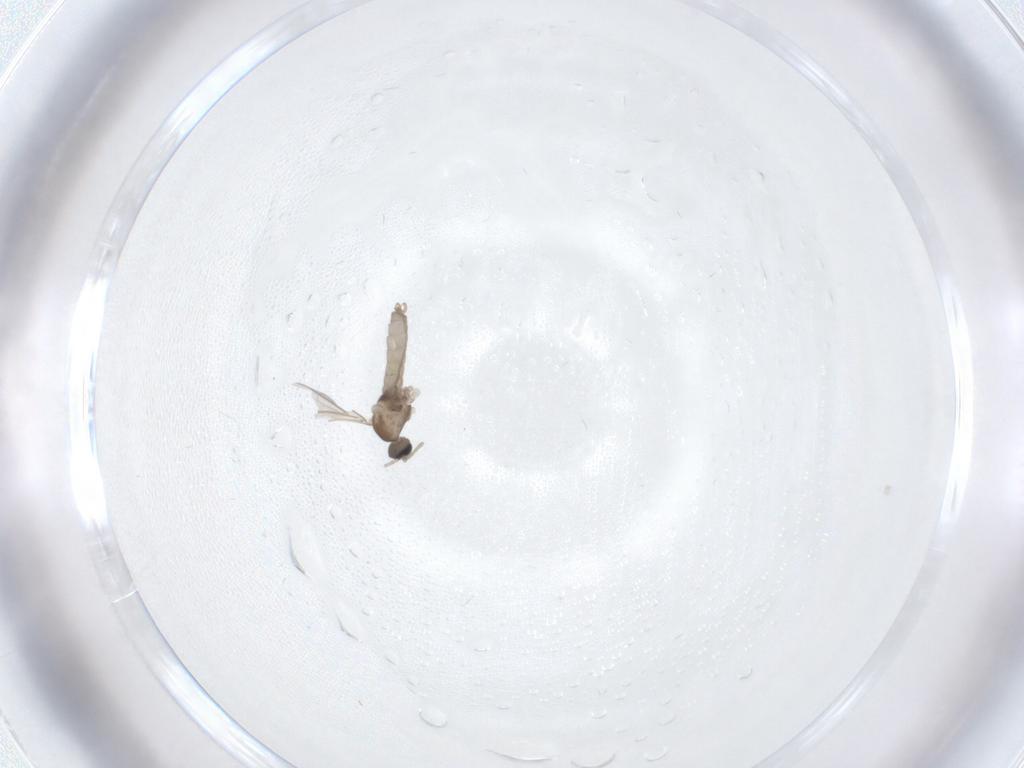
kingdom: Animalia
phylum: Arthropoda
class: Insecta
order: Diptera
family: Cecidomyiidae
